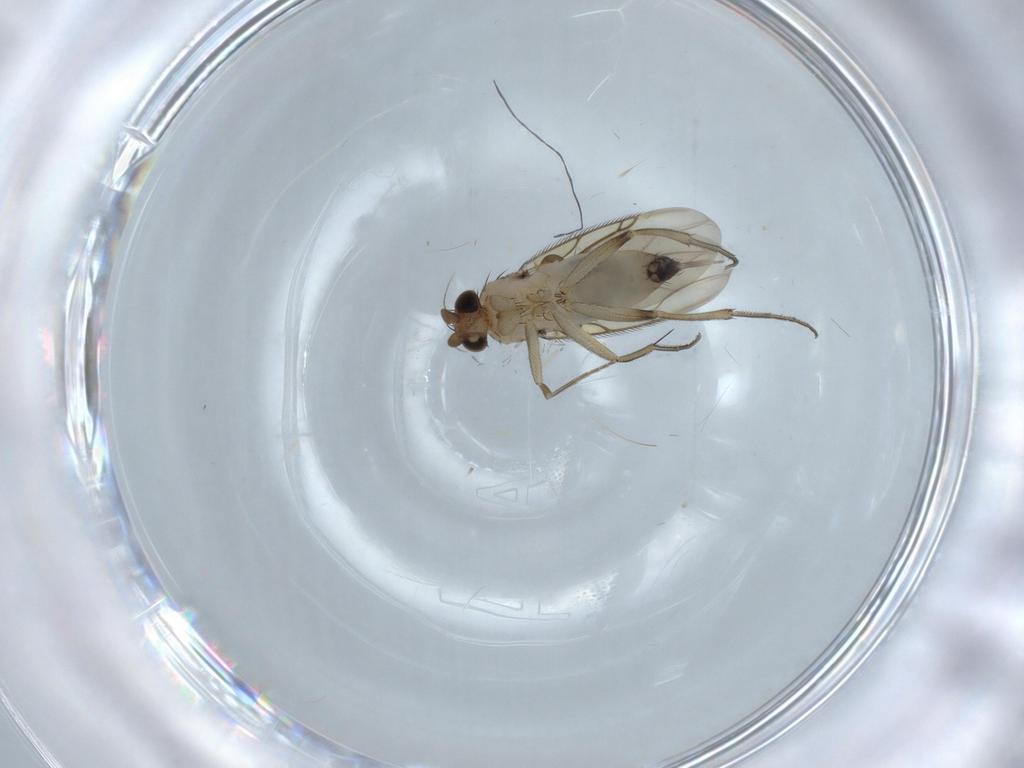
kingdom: Animalia
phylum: Arthropoda
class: Insecta
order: Diptera
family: Phoridae
